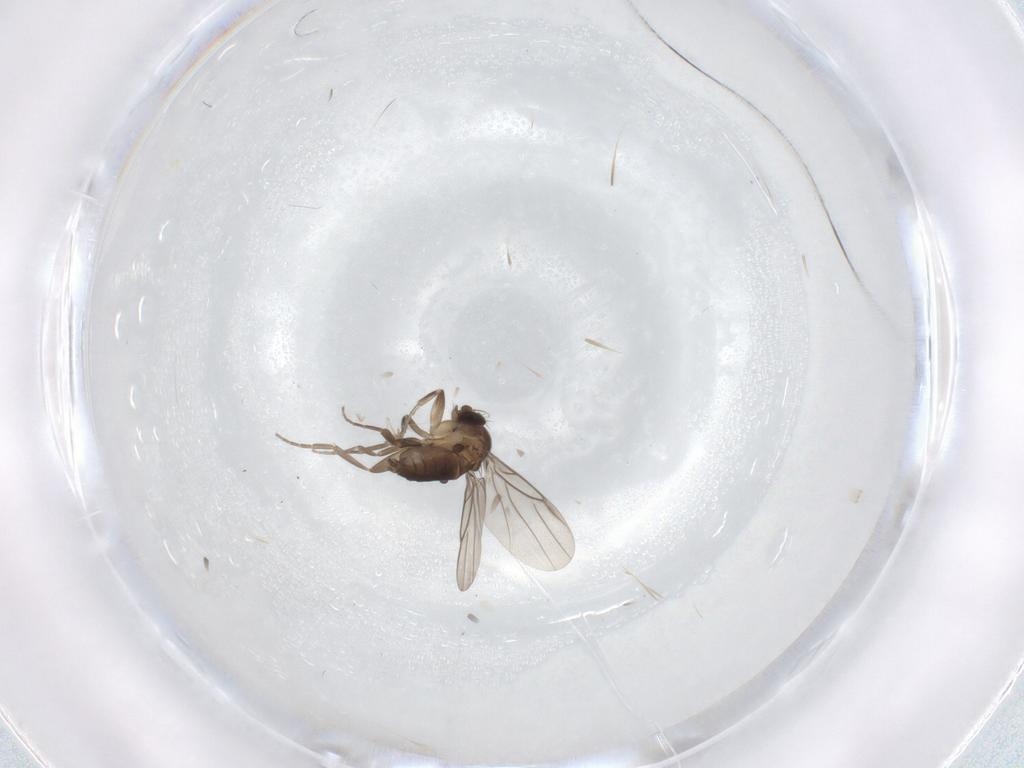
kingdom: Animalia
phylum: Arthropoda
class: Insecta
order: Diptera
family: Phoridae
